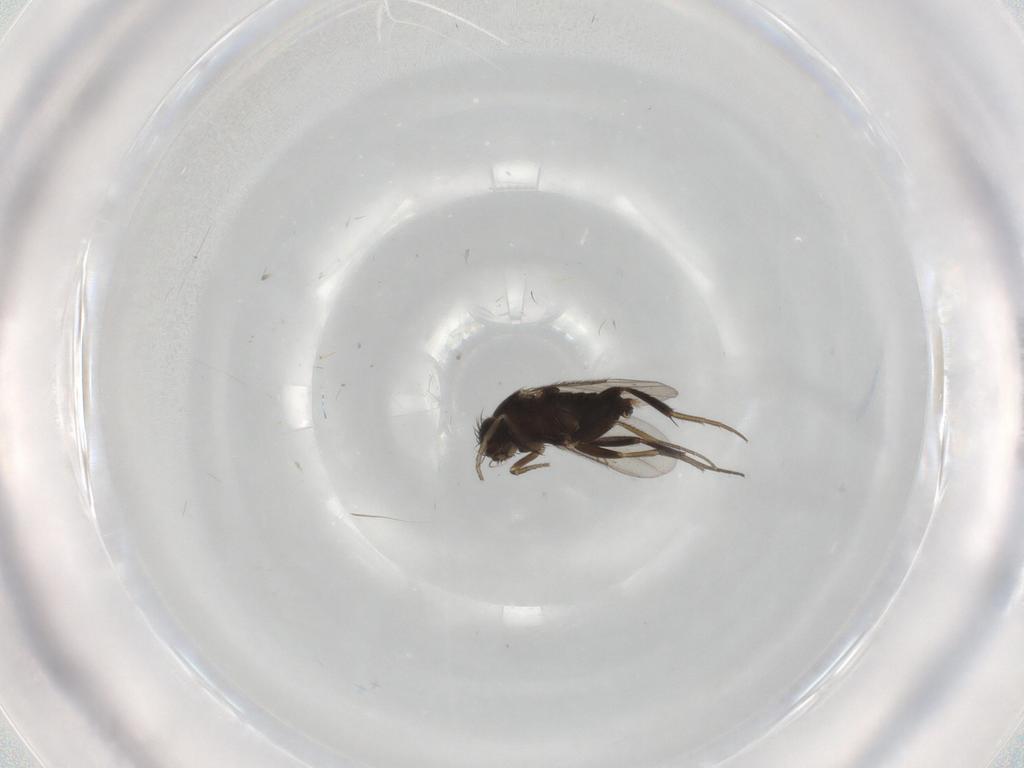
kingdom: Animalia
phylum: Arthropoda
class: Insecta
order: Diptera
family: Phoridae
